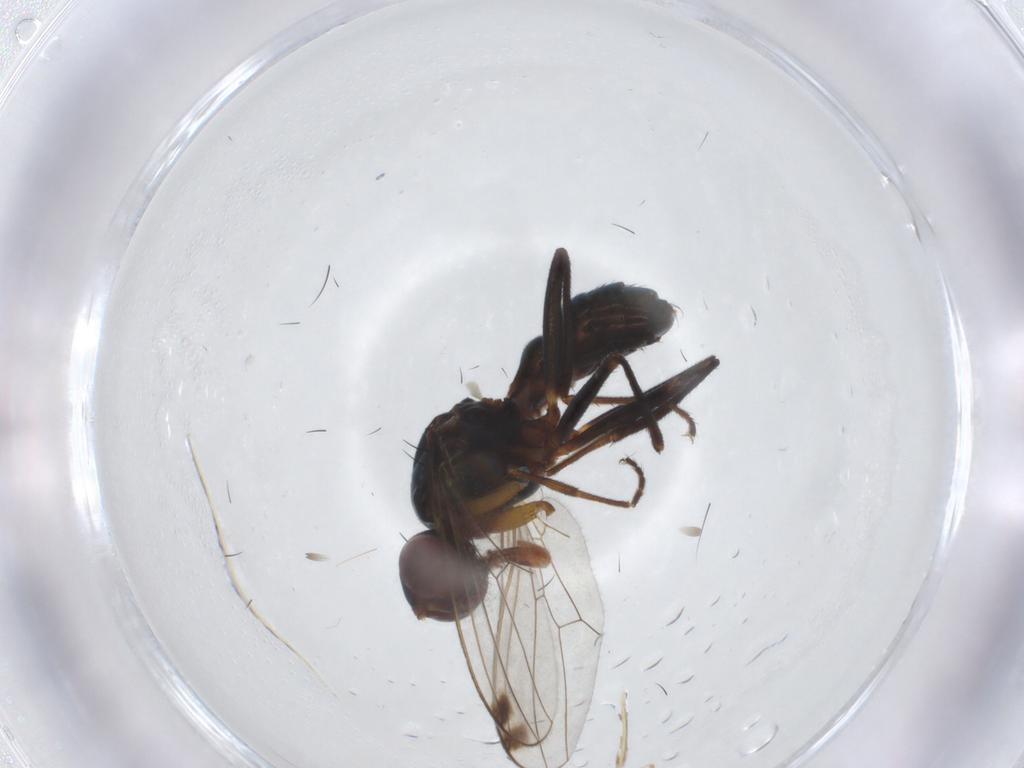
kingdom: Animalia
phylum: Arthropoda
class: Insecta
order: Diptera
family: Sepsidae
